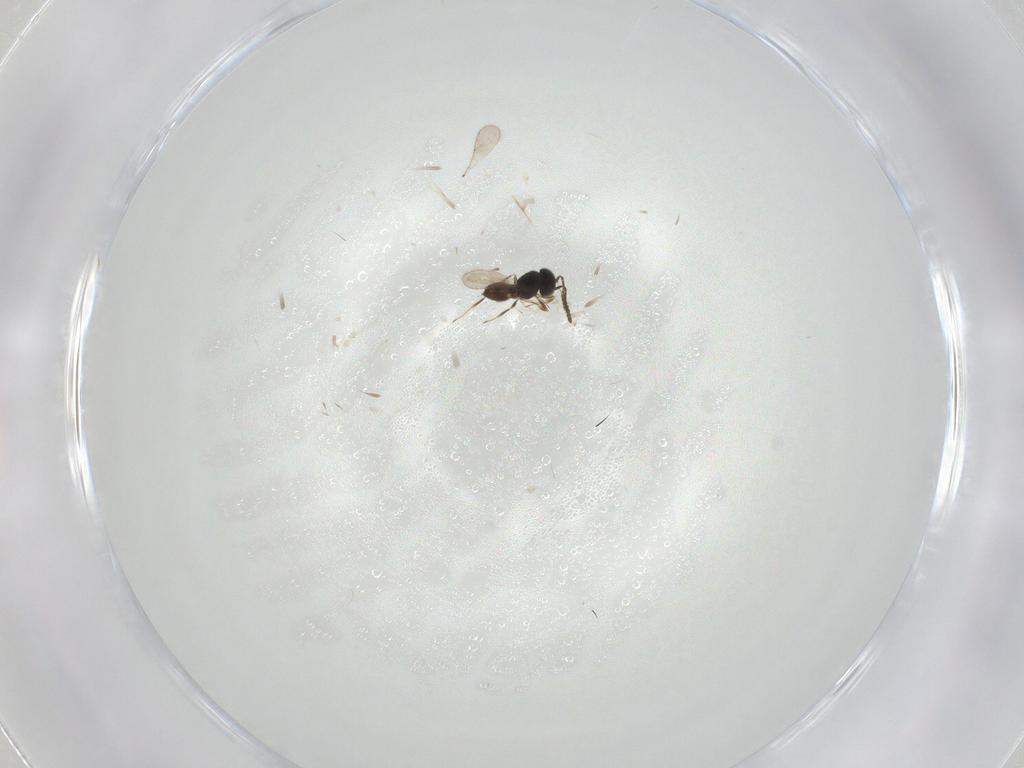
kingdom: Animalia
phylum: Arthropoda
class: Insecta
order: Hymenoptera
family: Scelionidae
